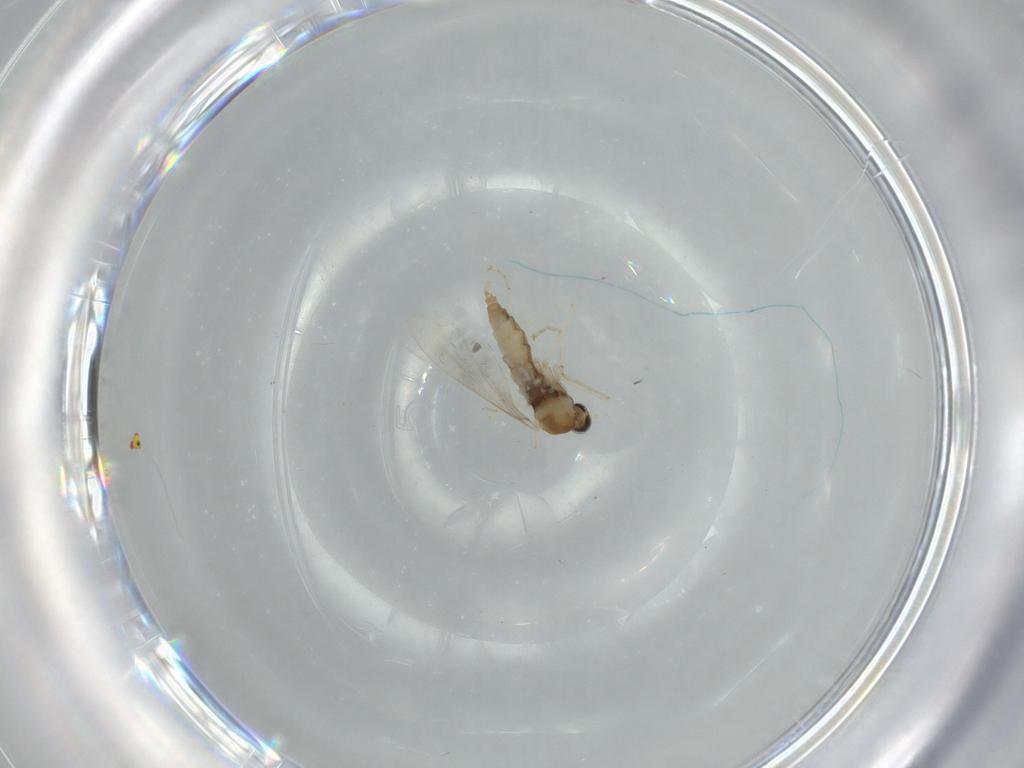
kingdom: Animalia
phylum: Arthropoda
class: Insecta
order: Diptera
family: Cecidomyiidae
